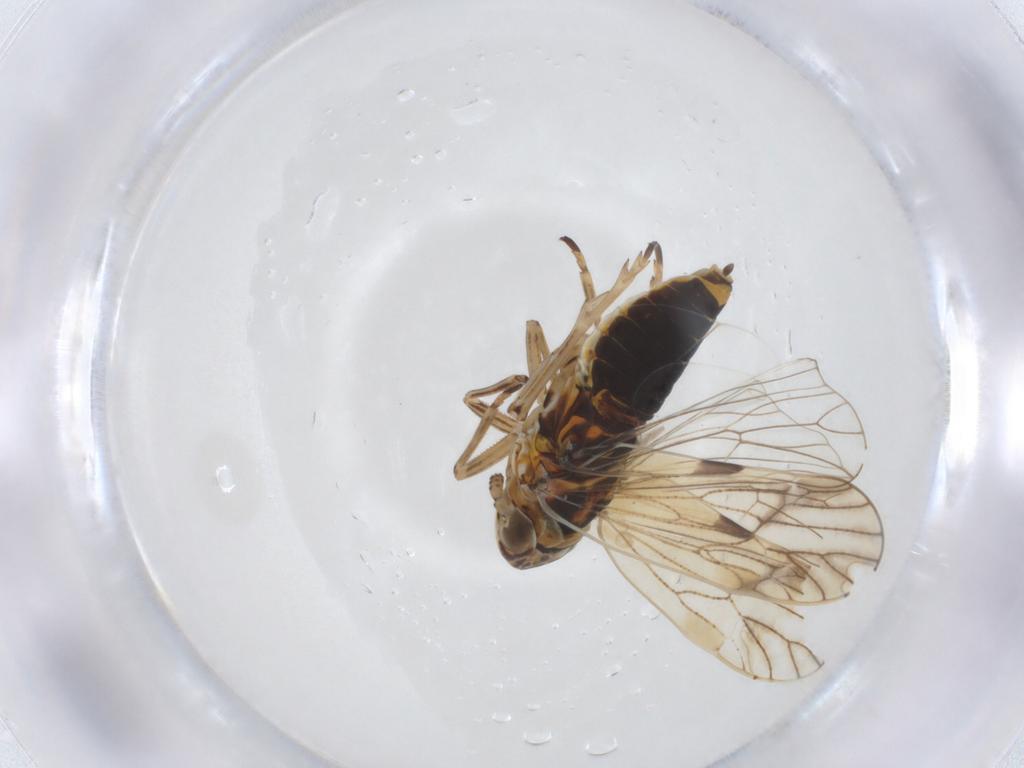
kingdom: Animalia
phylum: Arthropoda
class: Insecta
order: Hemiptera
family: Delphacidae
